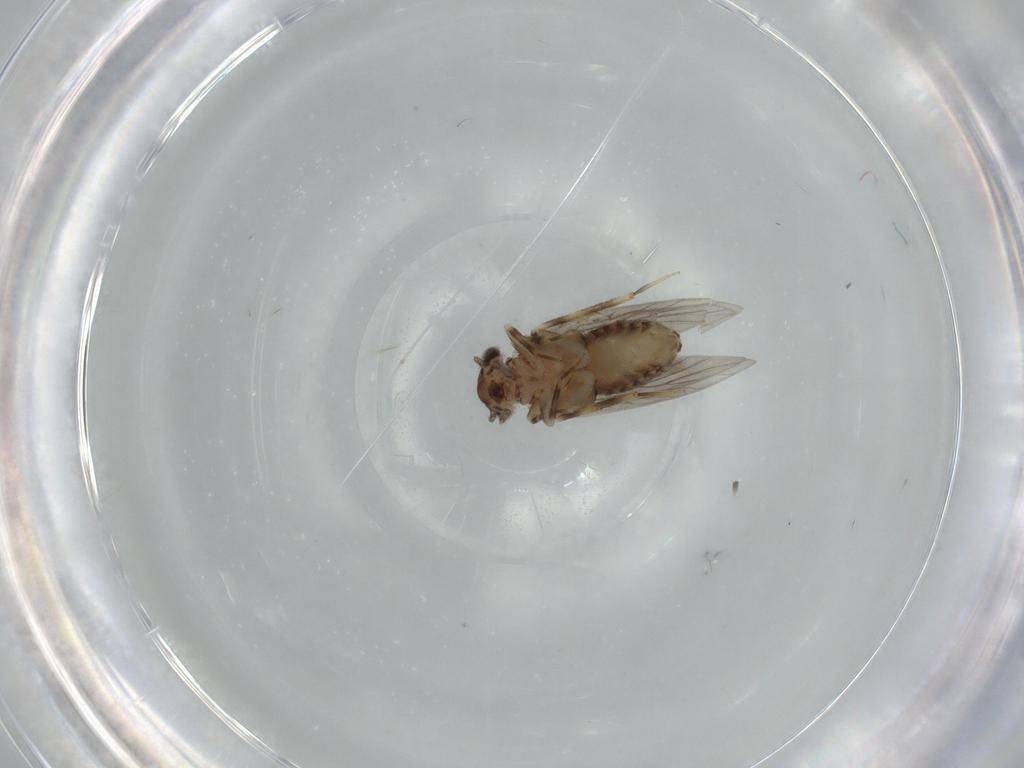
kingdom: Animalia
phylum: Arthropoda
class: Insecta
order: Psocodea
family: Lepidopsocidae
